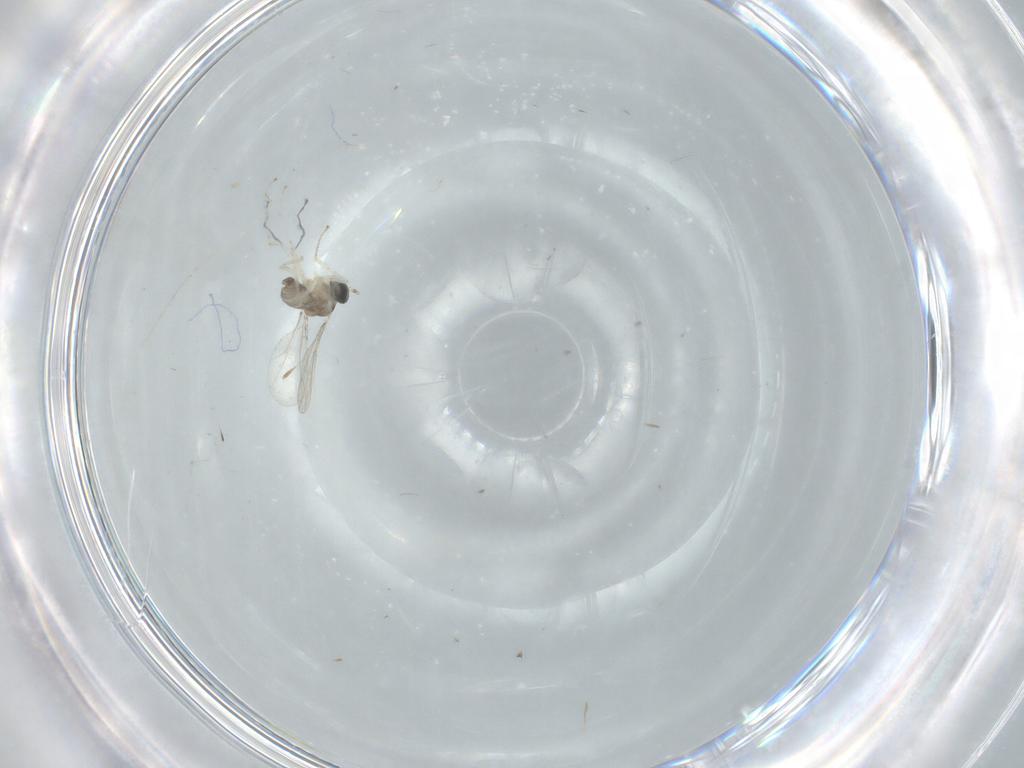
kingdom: Animalia
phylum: Arthropoda
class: Insecta
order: Diptera
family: Cecidomyiidae
